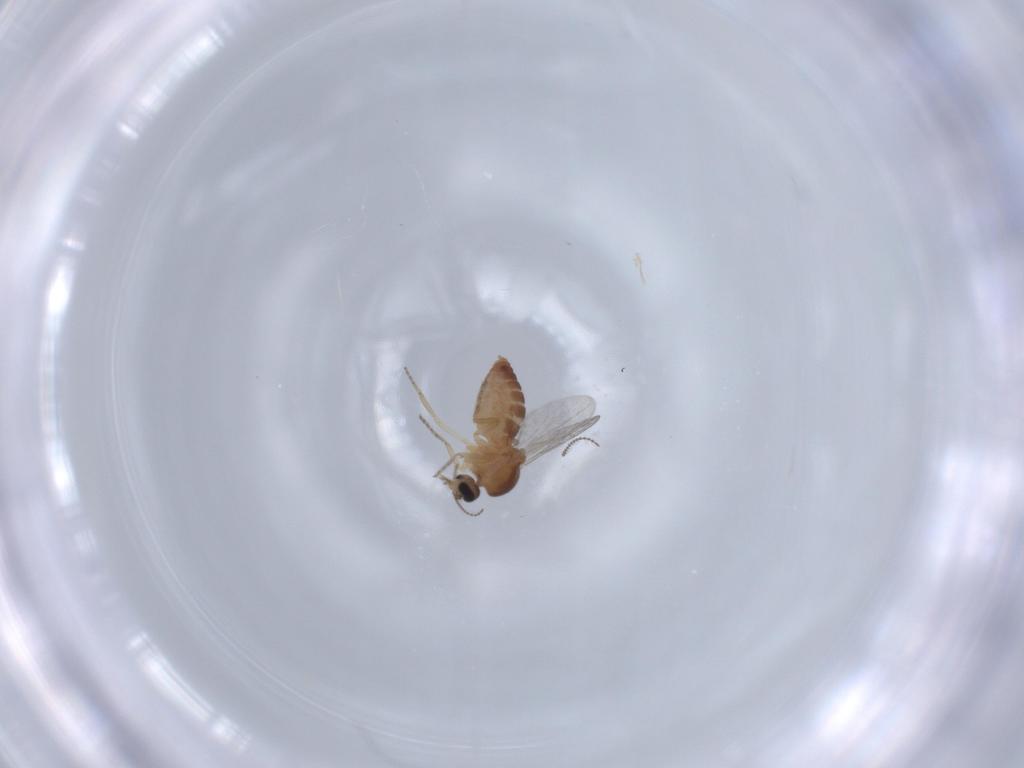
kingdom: Animalia
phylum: Arthropoda
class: Insecta
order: Diptera
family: Ceratopogonidae
